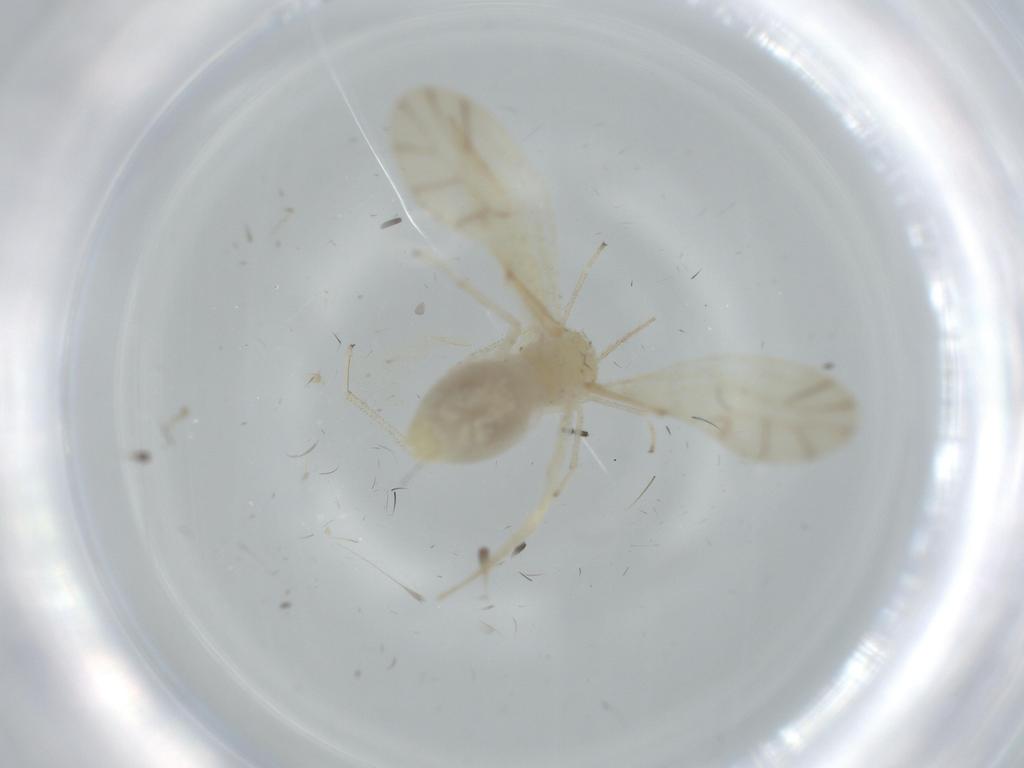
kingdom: Animalia
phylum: Arthropoda
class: Insecta
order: Psocodea
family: Caeciliusidae
